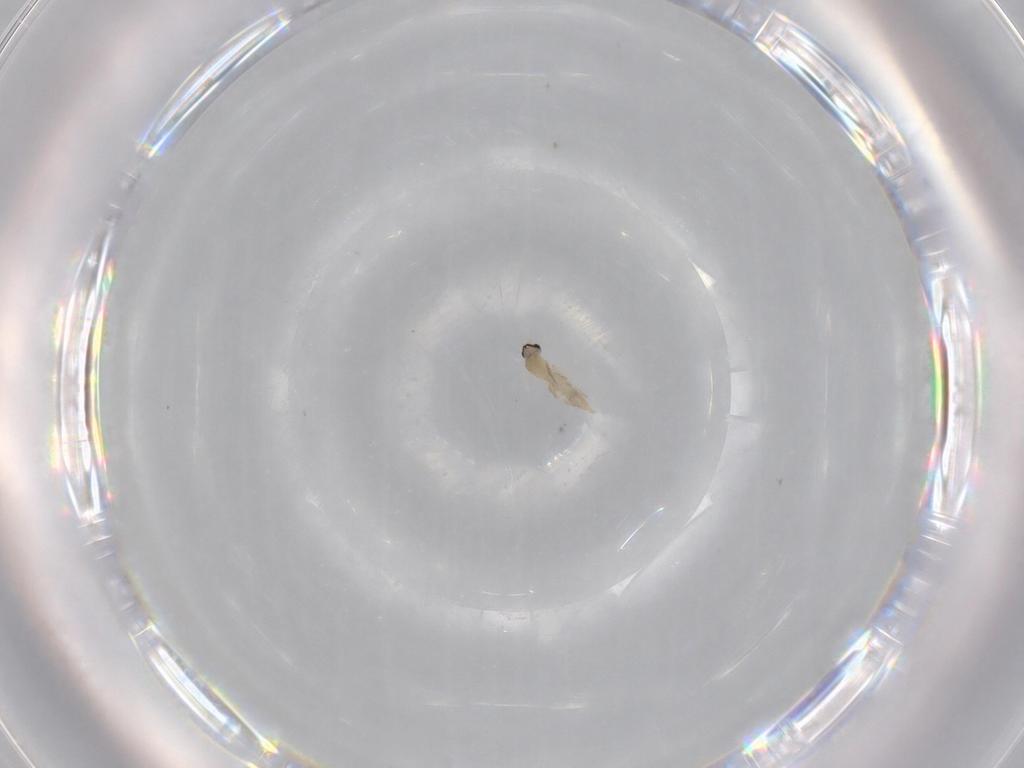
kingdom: Animalia
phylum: Arthropoda
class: Insecta
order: Diptera
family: Cecidomyiidae
